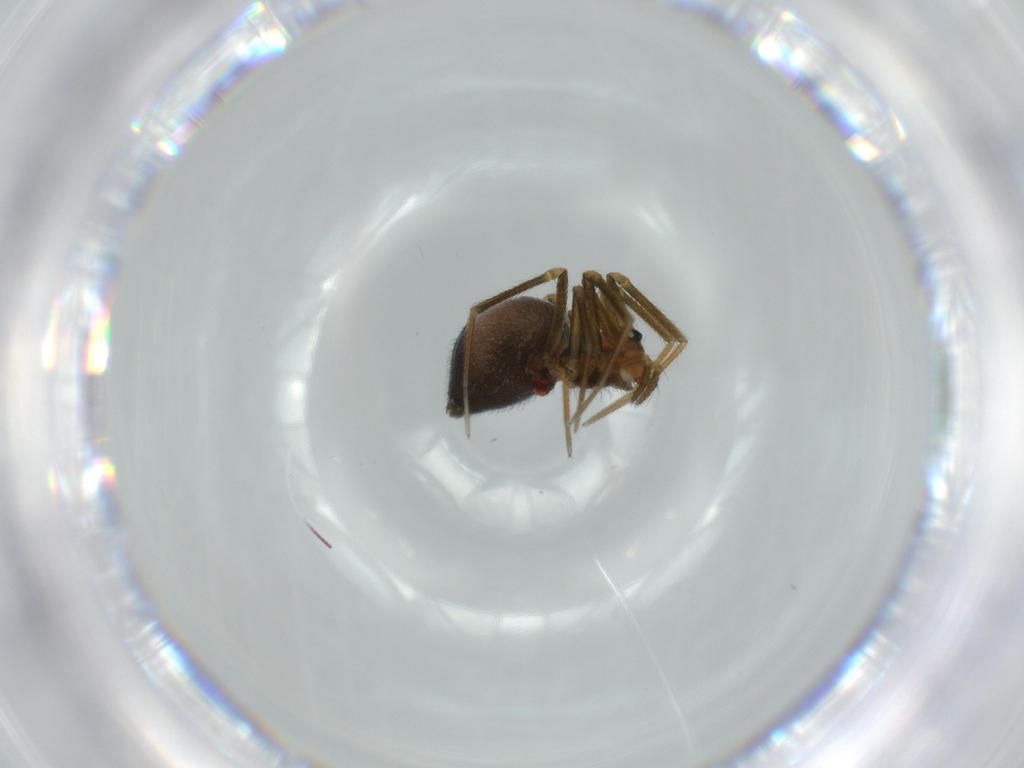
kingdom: Animalia
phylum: Arthropoda
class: Arachnida
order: Araneae
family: Linyphiidae
